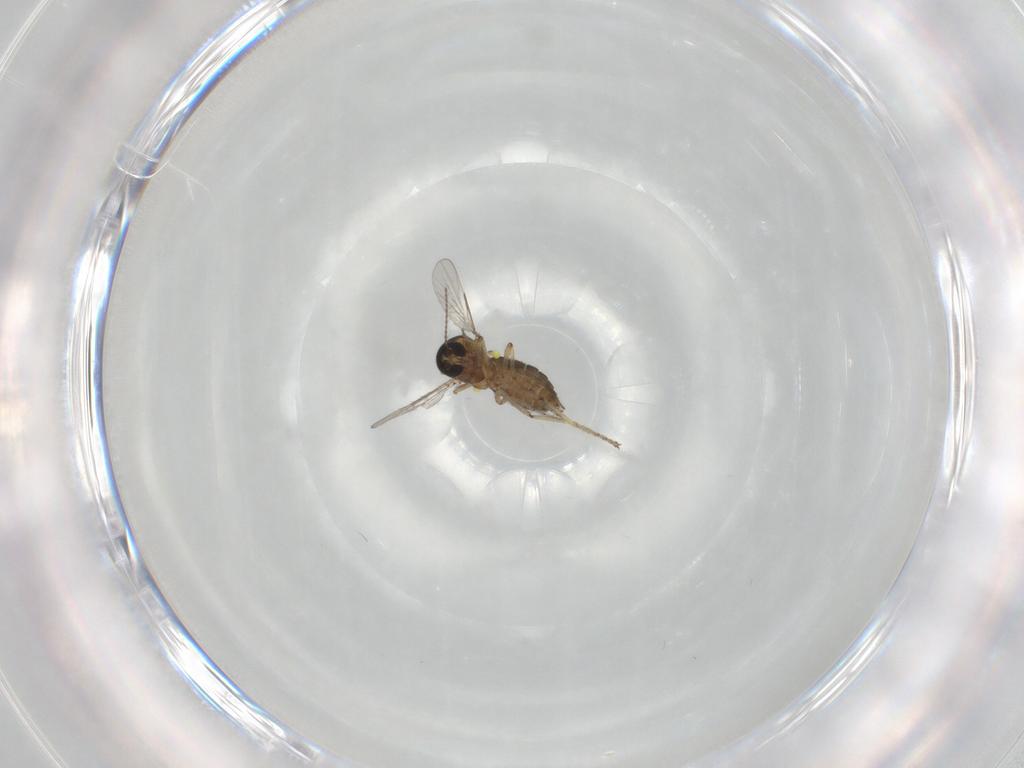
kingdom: Animalia
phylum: Arthropoda
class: Insecta
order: Diptera
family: Ceratopogonidae
